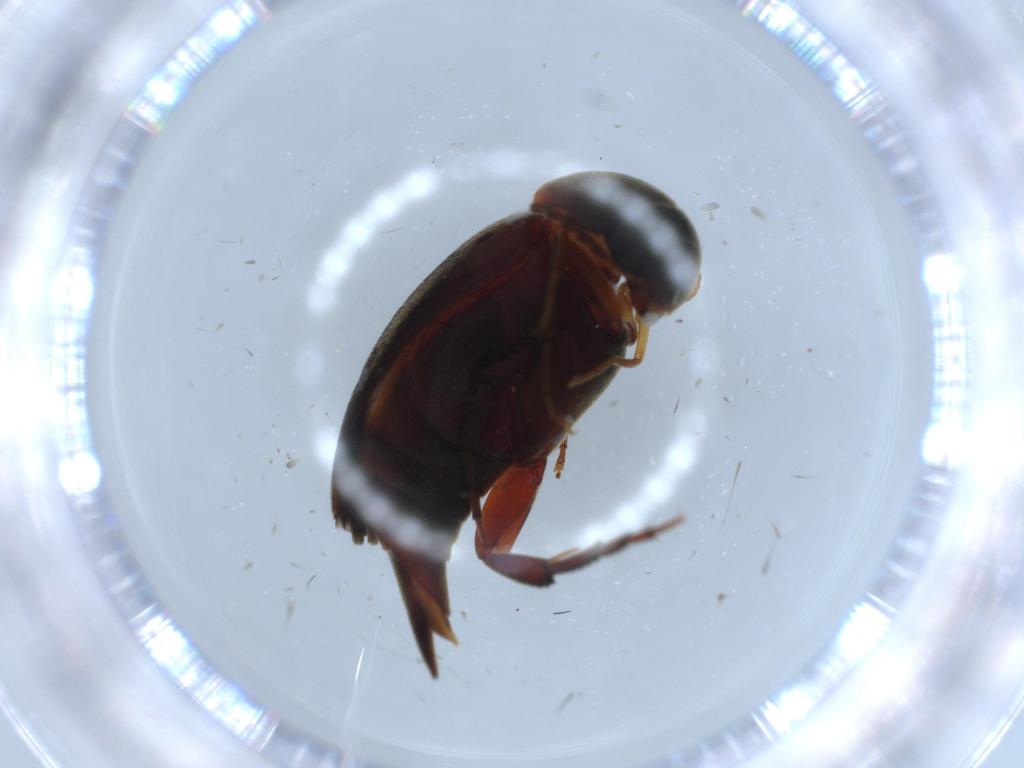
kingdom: Animalia
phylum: Arthropoda
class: Insecta
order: Coleoptera
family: Mordellidae
